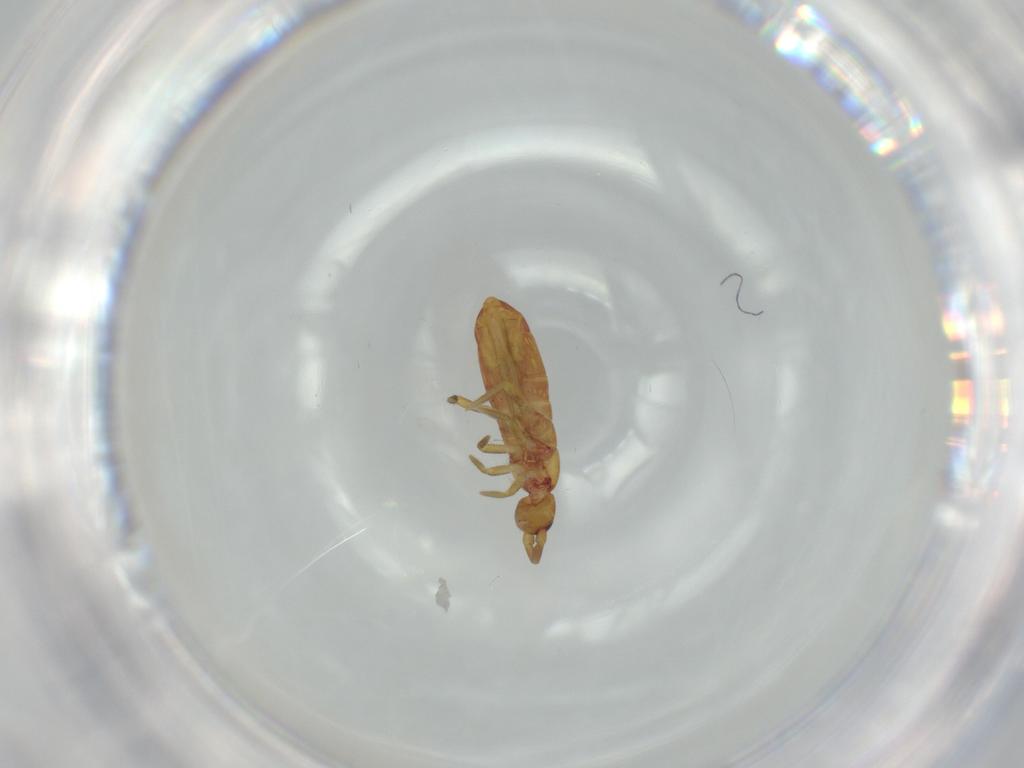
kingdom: Animalia
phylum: Arthropoda
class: Collembola
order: Entomobryomorpha
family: Tomoceridae
